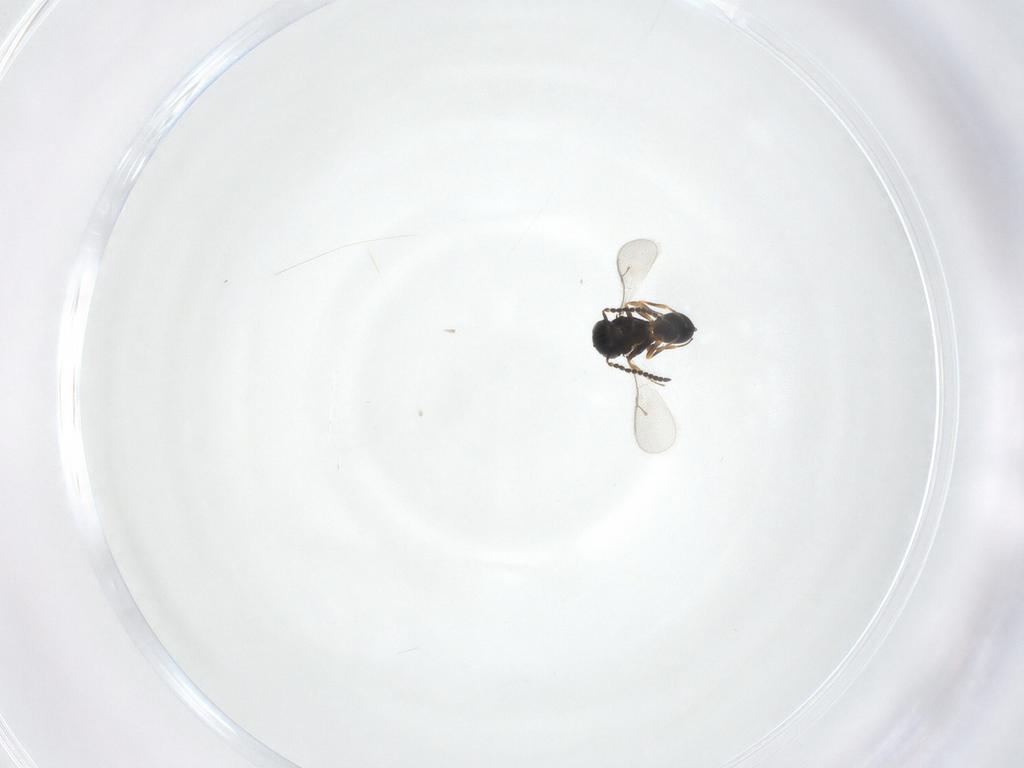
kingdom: Animalia
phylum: Arthropoda
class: Insecta
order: Hymenoptera
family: Scelionidae
